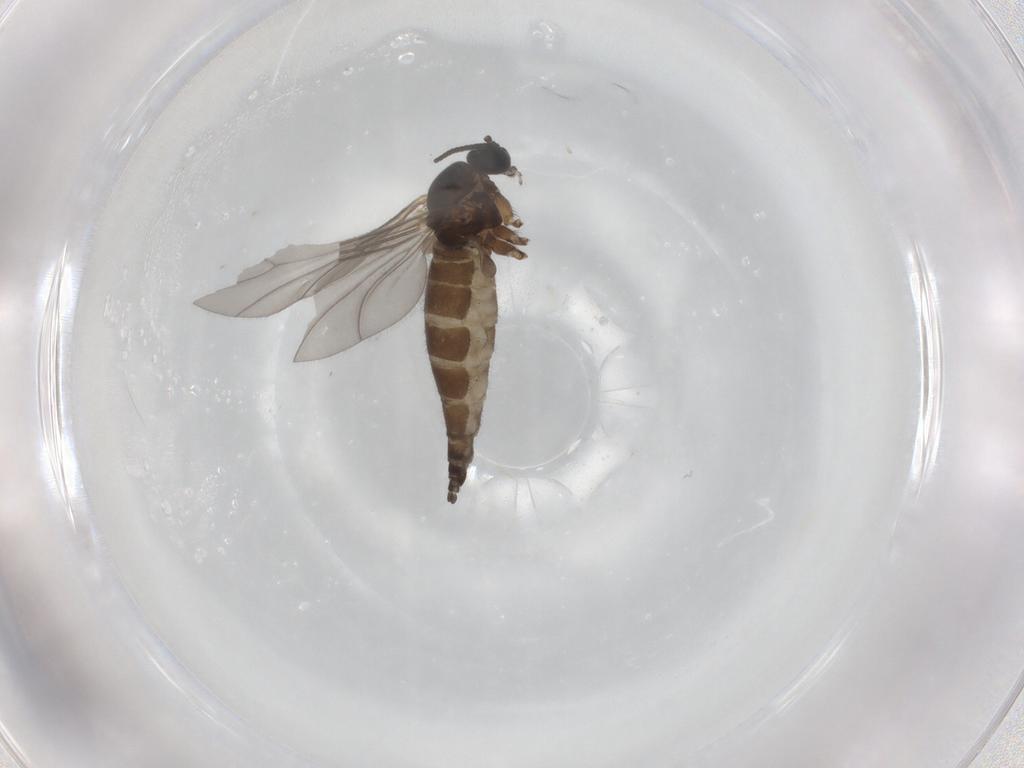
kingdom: Animalia
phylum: Arthropoda
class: Insecta
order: Diptera
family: Sciaridae
